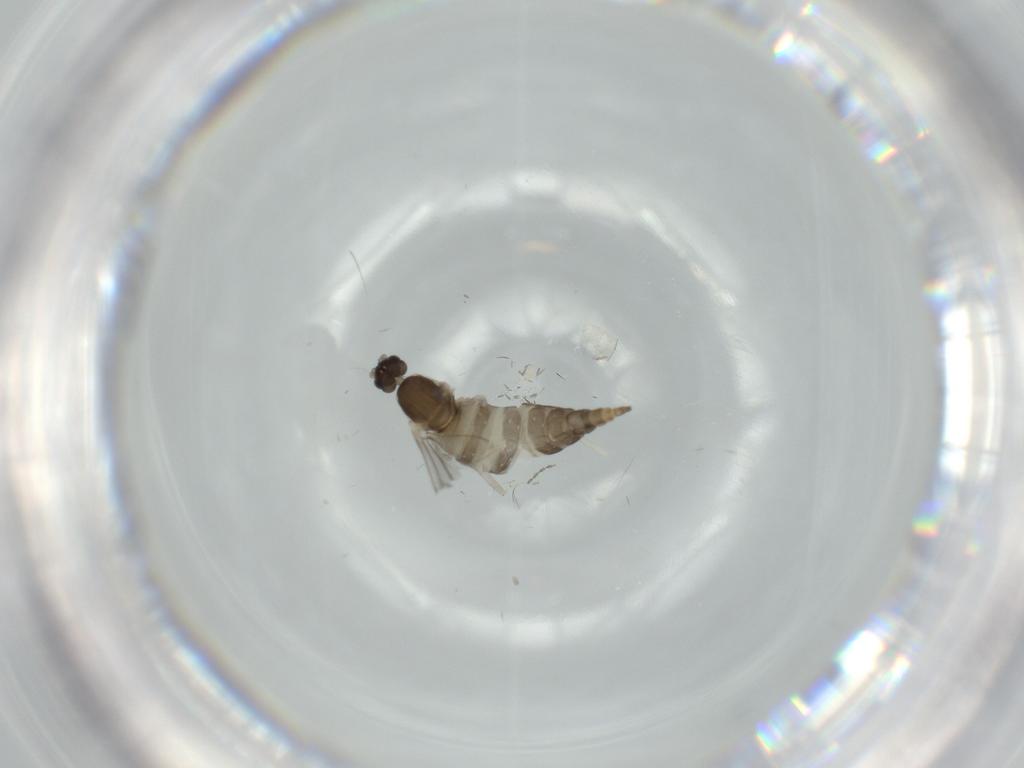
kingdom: Animalia
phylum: Arthropoda
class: Insecta
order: Diptera
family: Cecidomyiidae
